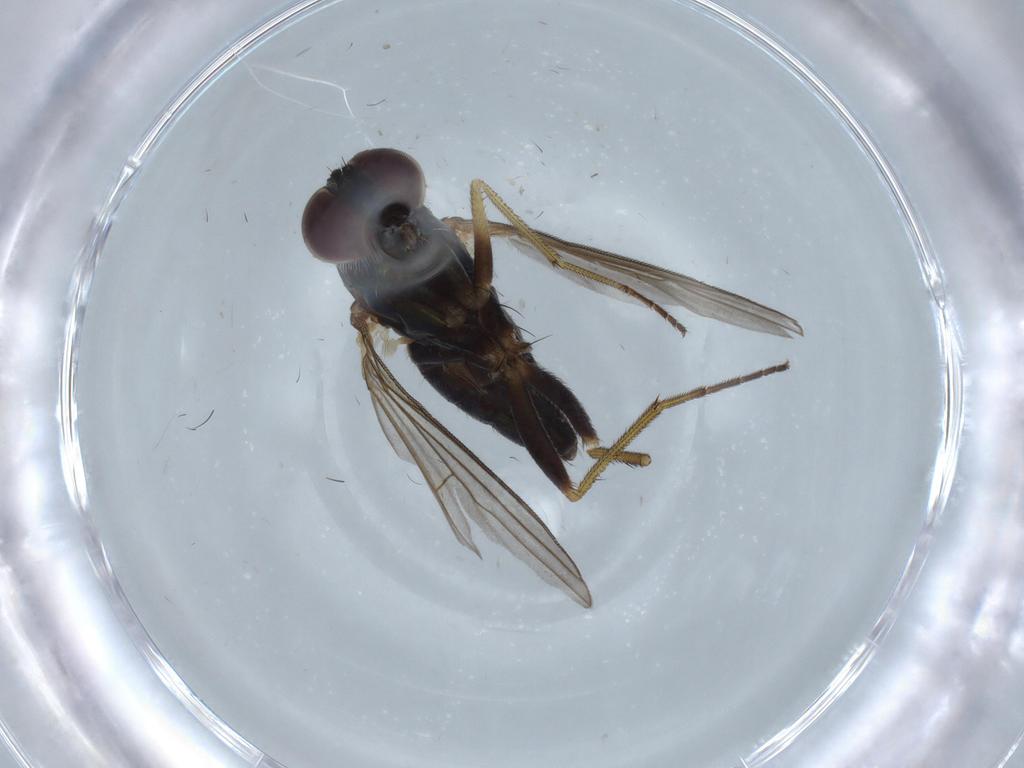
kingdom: Animalia
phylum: Arthropoda
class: Insecta
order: Diptera
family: Dolichopodidae
